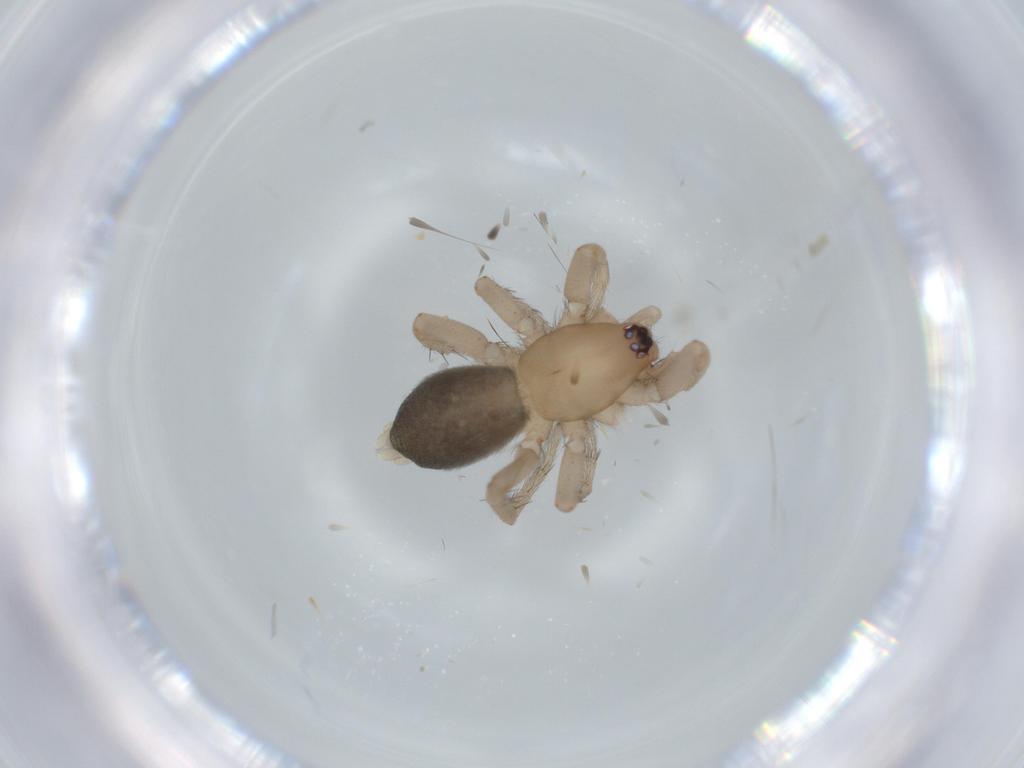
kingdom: Animalia
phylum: Arthropoda
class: Arachnida
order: Araneae
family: Gnaphosidae
